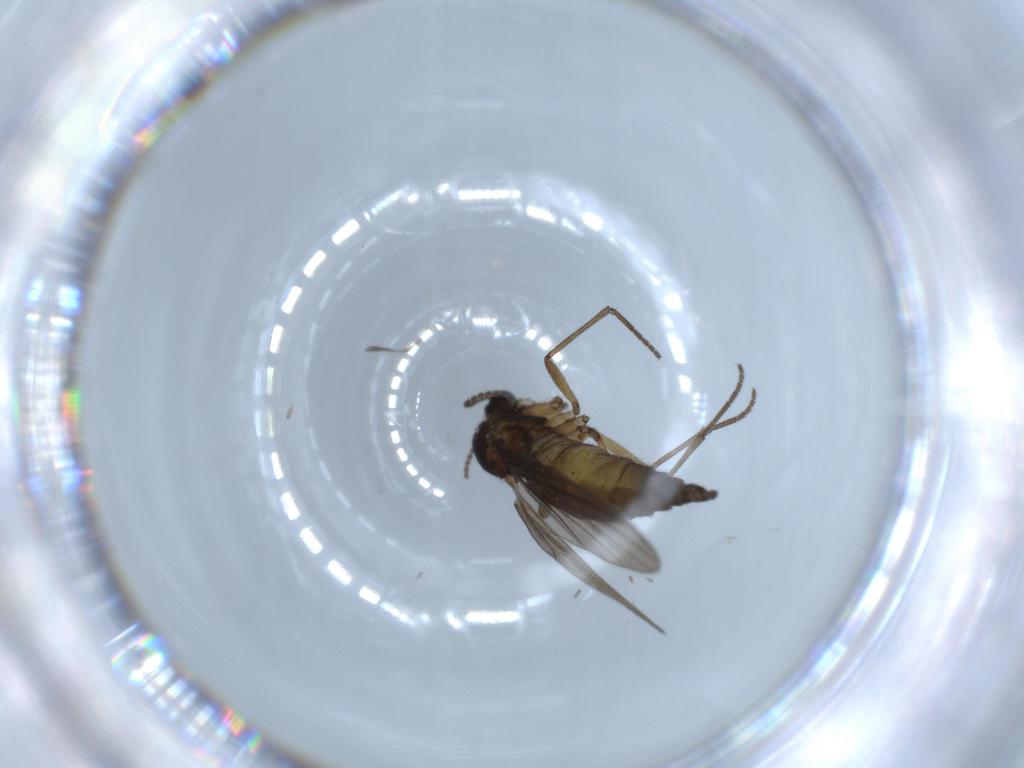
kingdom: Animalia
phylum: Arthropoda
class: Insecta
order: Diptera
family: Sciaridae
